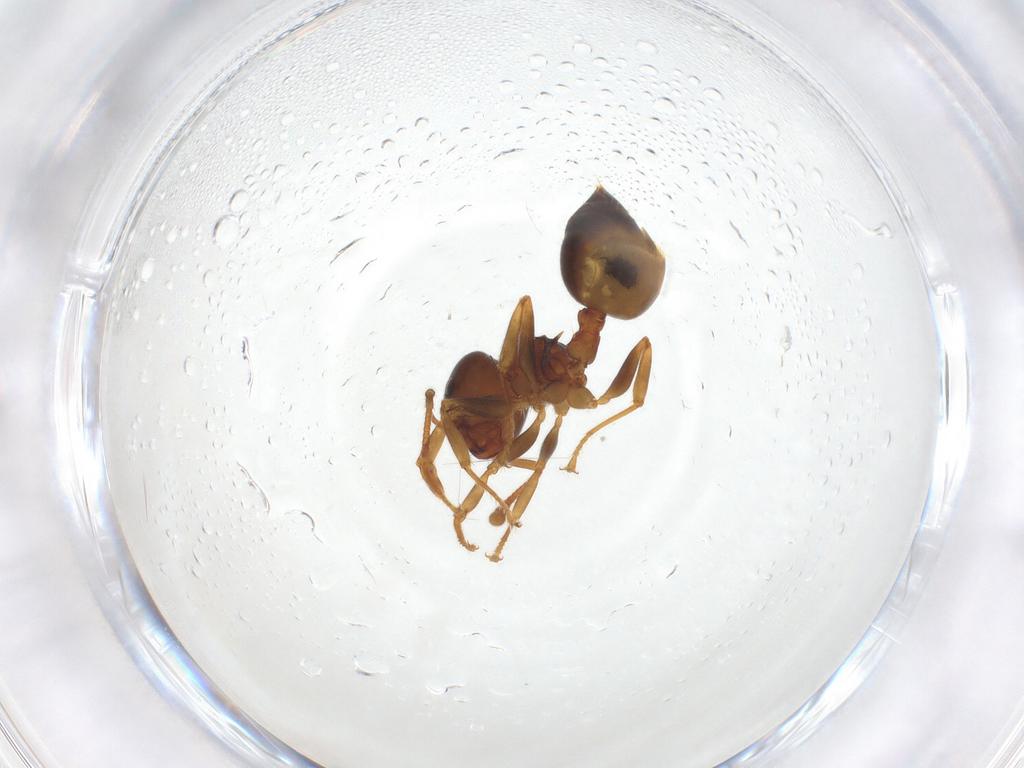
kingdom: Animalia
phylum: Arthropoda
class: Insecta
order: Hymenoptera
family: Formicidae
